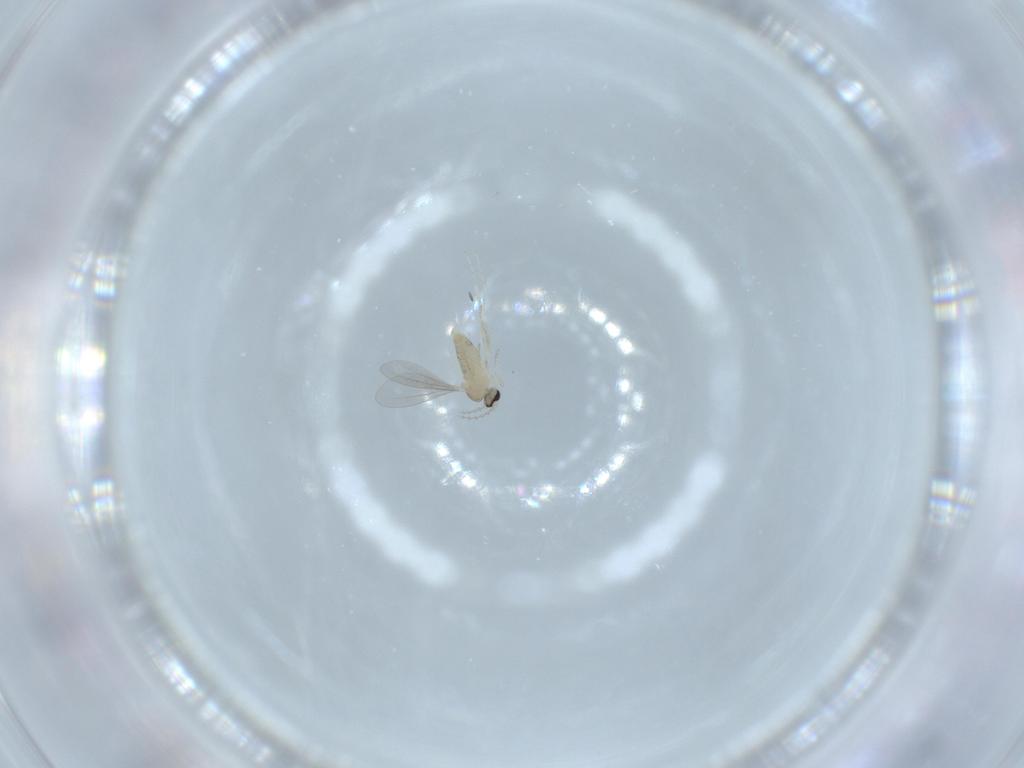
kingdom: Animalia
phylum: Arthropoda
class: Insecta
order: Diptera
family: Cecidomyiidae
